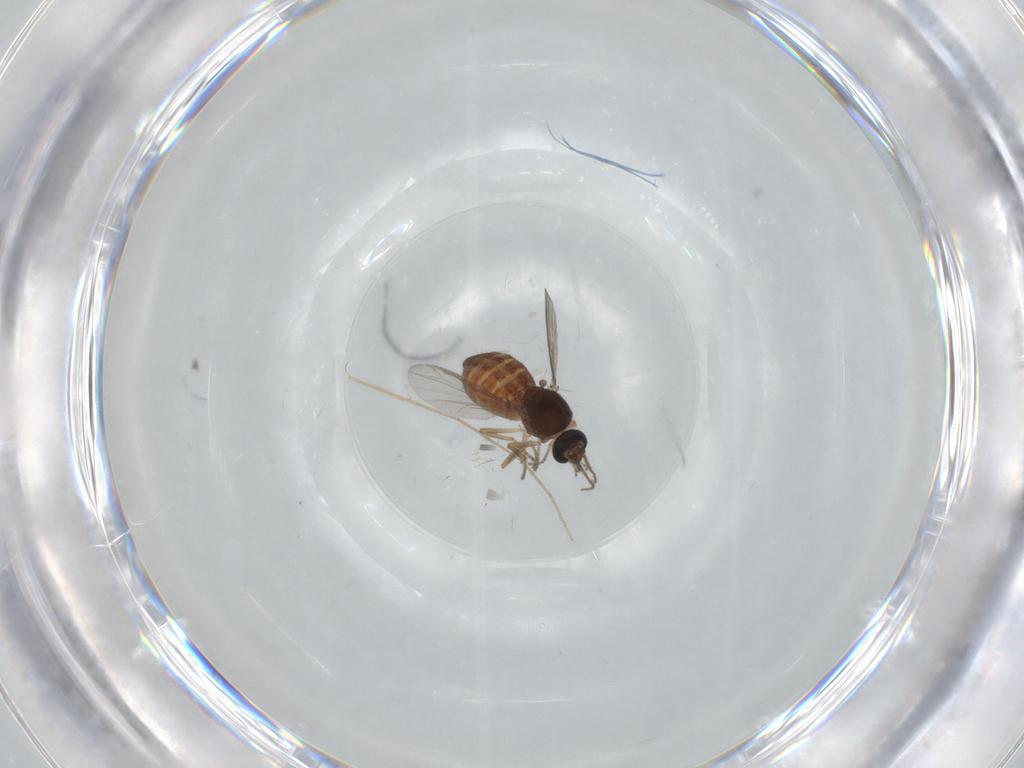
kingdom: Animalia
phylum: Arthropoda
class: Insecta
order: Diptera
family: Ceratopogonidae
